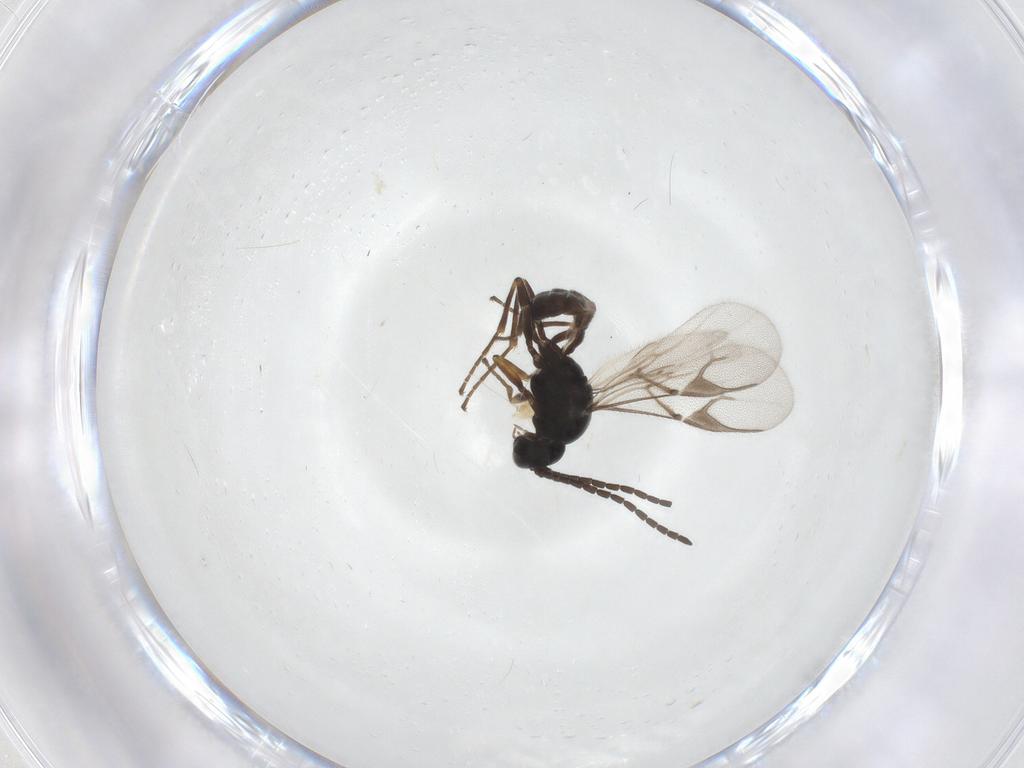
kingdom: Animalia
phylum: Arthropoda
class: Insecta
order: Hymenoptera
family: Braconidae
